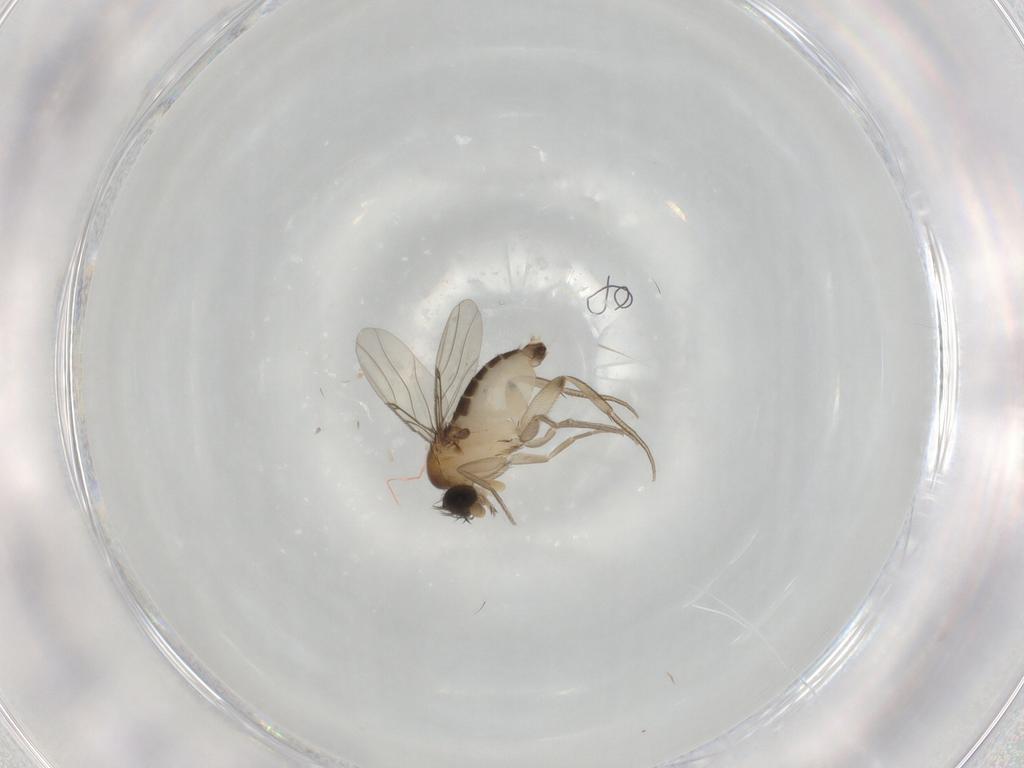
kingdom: Animalia
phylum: Arthropoda
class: Insecta
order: Diptera
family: Phoridae
